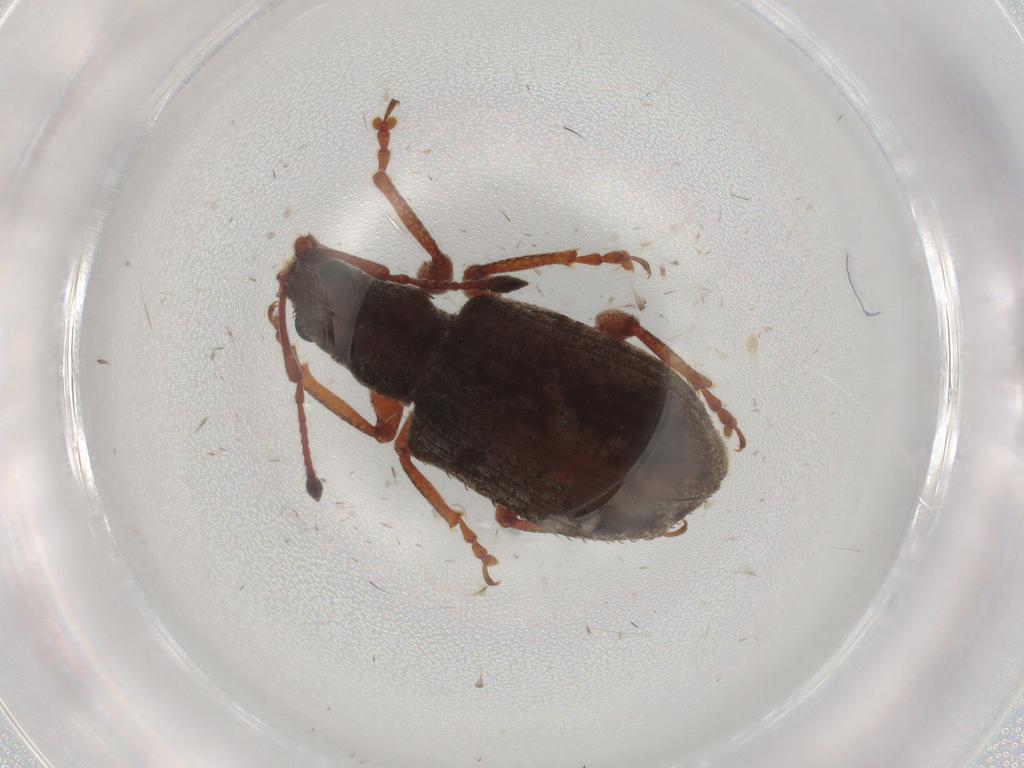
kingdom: Animalia
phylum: Arthropoda
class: Insecta
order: Coleoptera
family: Curculionidae
